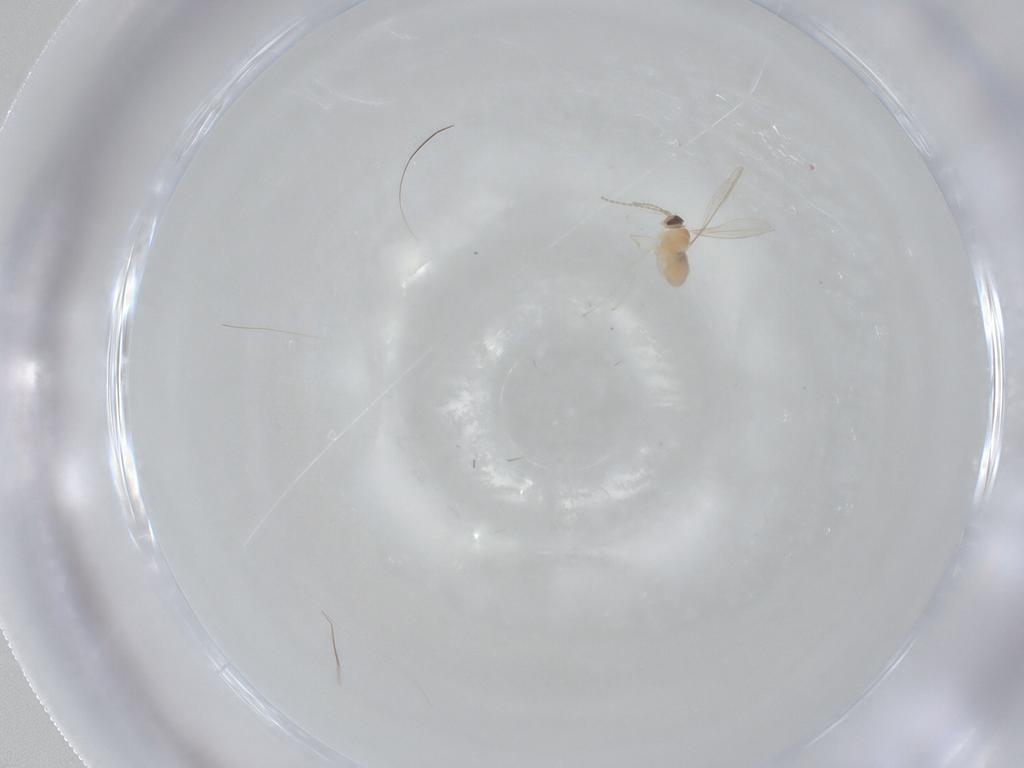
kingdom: Animalia
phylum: Arthropoda
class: Insecta
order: Diptera
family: Cecidomyiidae
